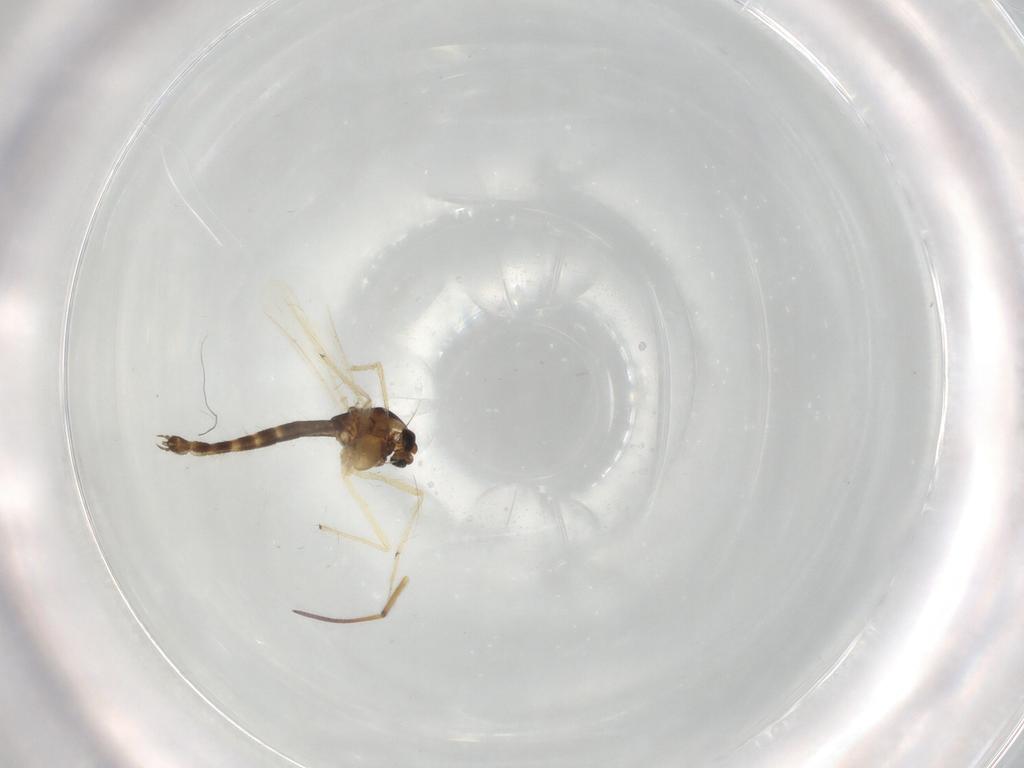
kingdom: Animalia
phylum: Arthropoda
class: Insecta
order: Diptera
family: Chironomidae
